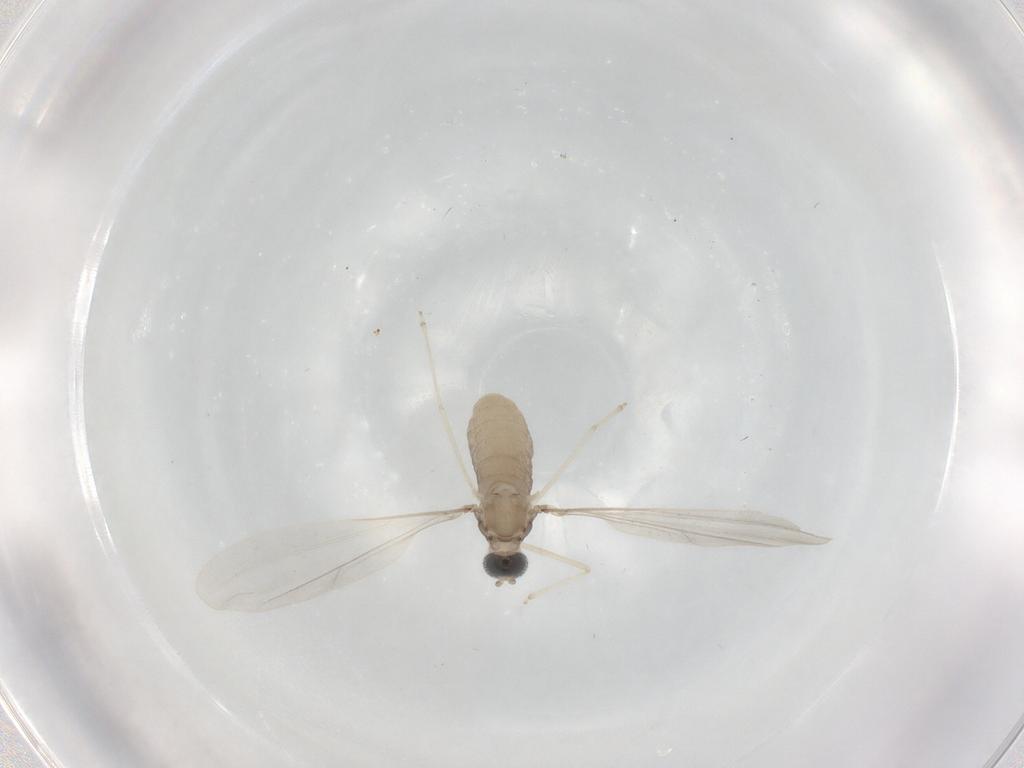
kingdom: Animalia
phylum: Arthropoda
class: Insecta
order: Diptera
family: Cecidomyiidae
